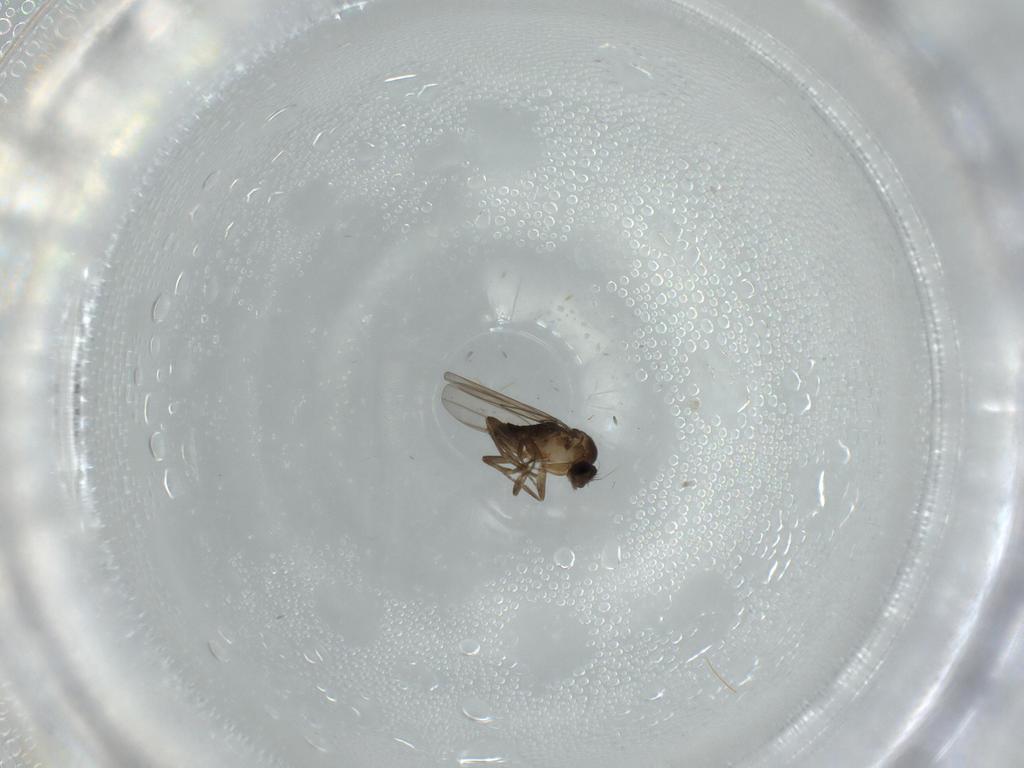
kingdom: Animalia
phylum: Arthropoda
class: Insecta
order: Diptera
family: Phoridae
